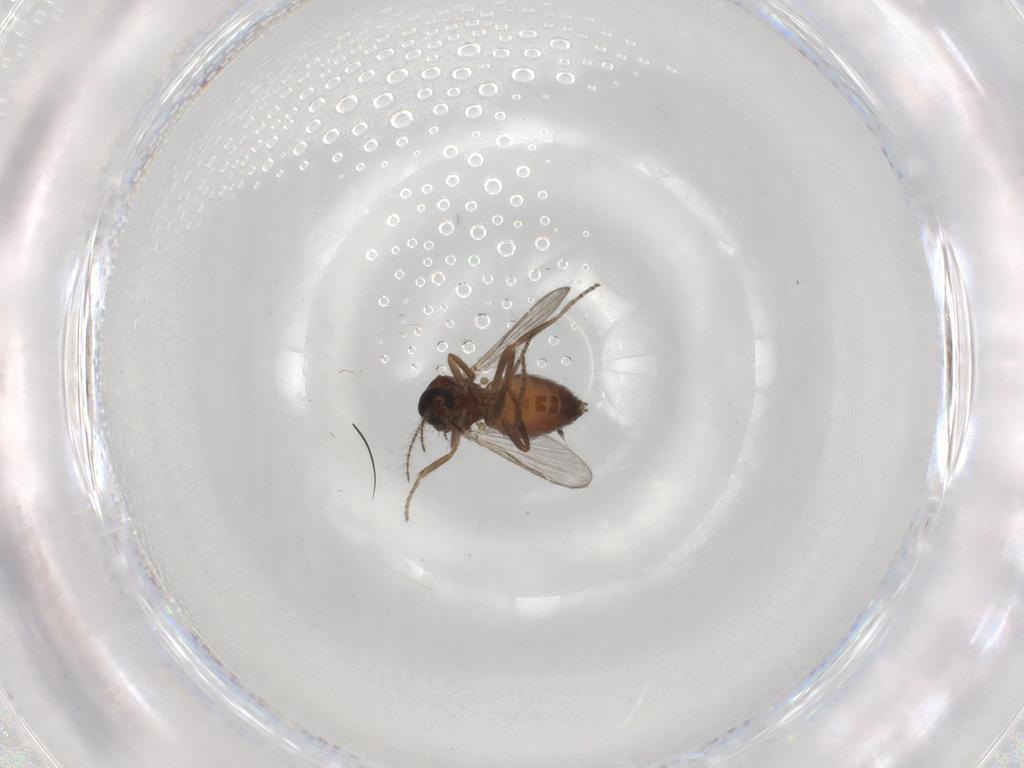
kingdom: Animalia
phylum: Arthropoda
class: Insecta
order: Diptera
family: Ceratopogonidae
